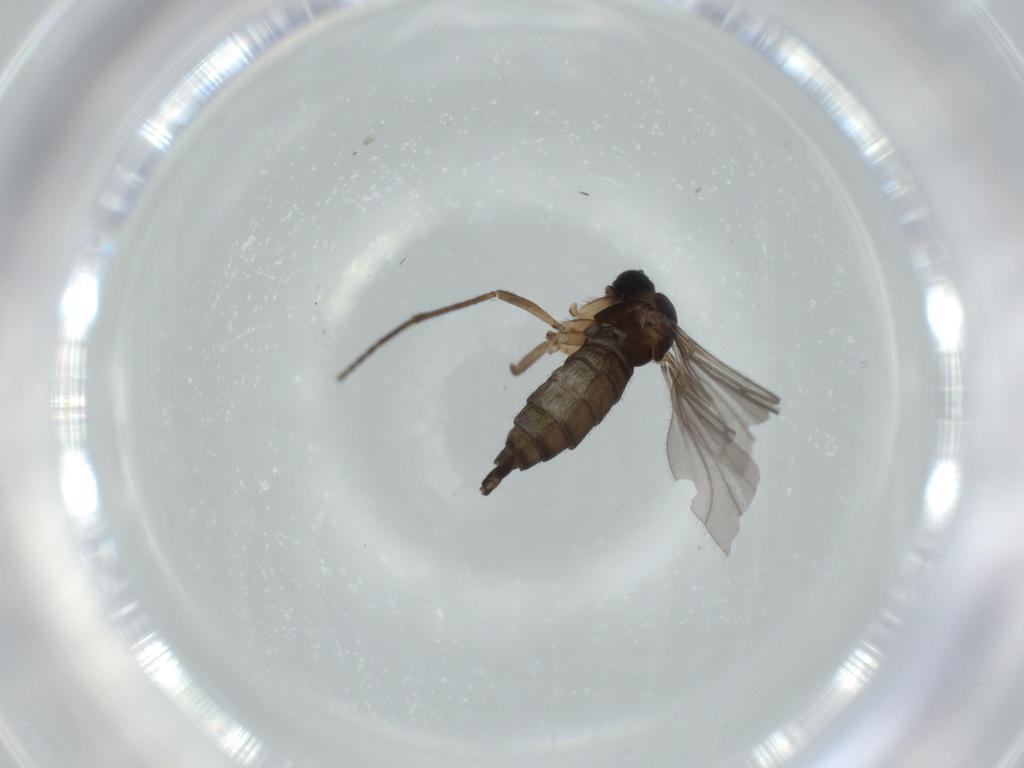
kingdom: Animalia
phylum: Arthropoda
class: Insecta
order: Diptera
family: Sciaridae
